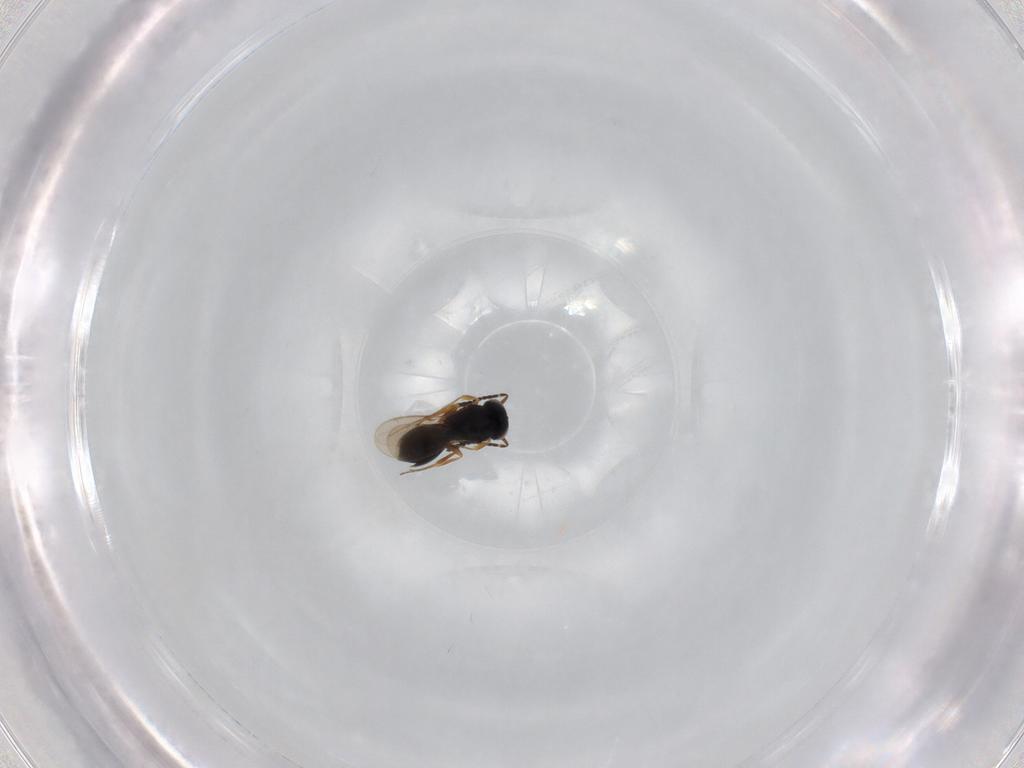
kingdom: Animalia
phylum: Arthropoda
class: Insecta
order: Hymenoptera
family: Scelionidae
